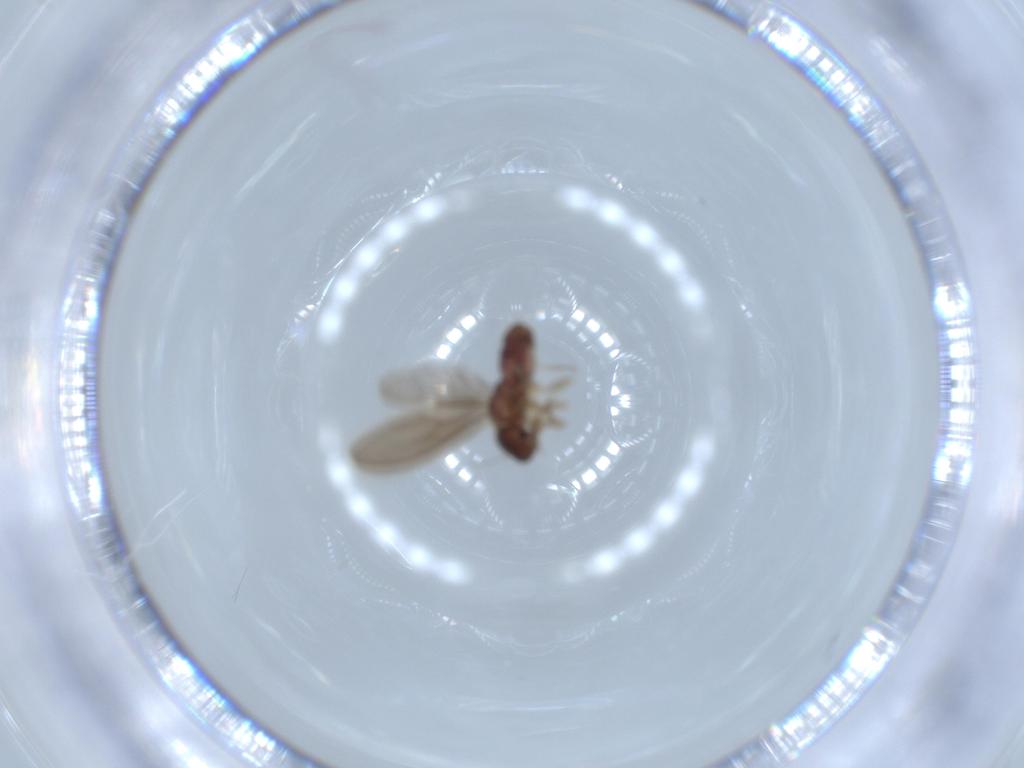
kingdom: Animalia
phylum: Arthropoda
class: Insecta
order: Psocodea
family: Archipsocidae
